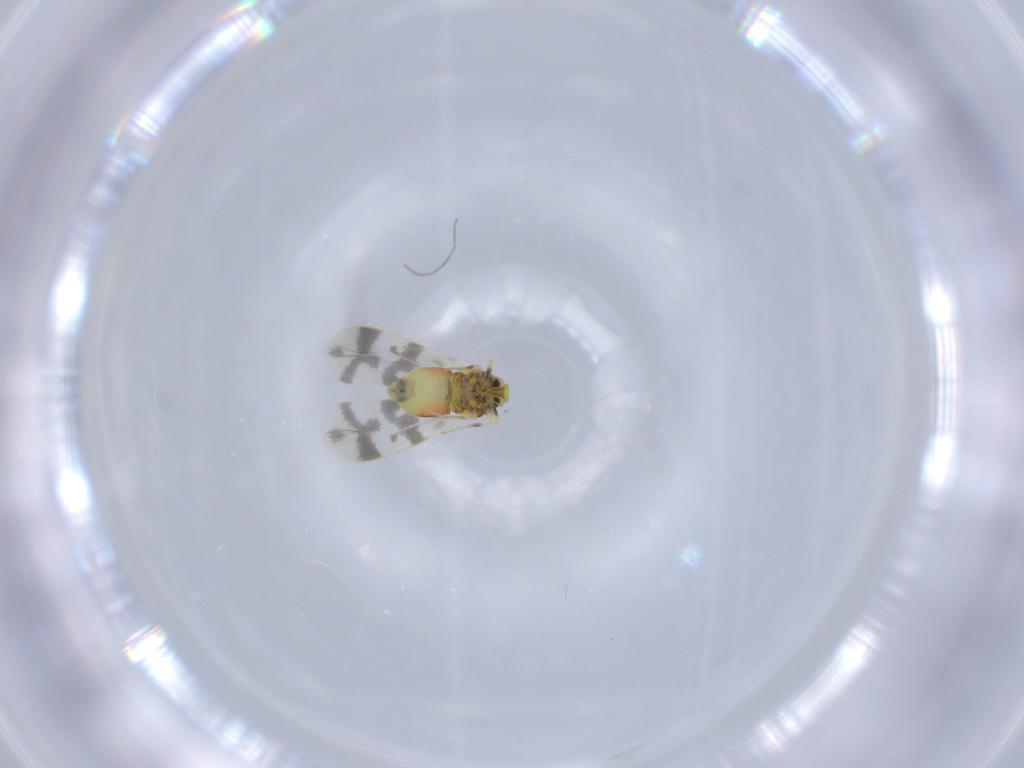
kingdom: Animalia
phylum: Arthropoda
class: Insecta
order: Hemiptera
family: Aleyrodidae
